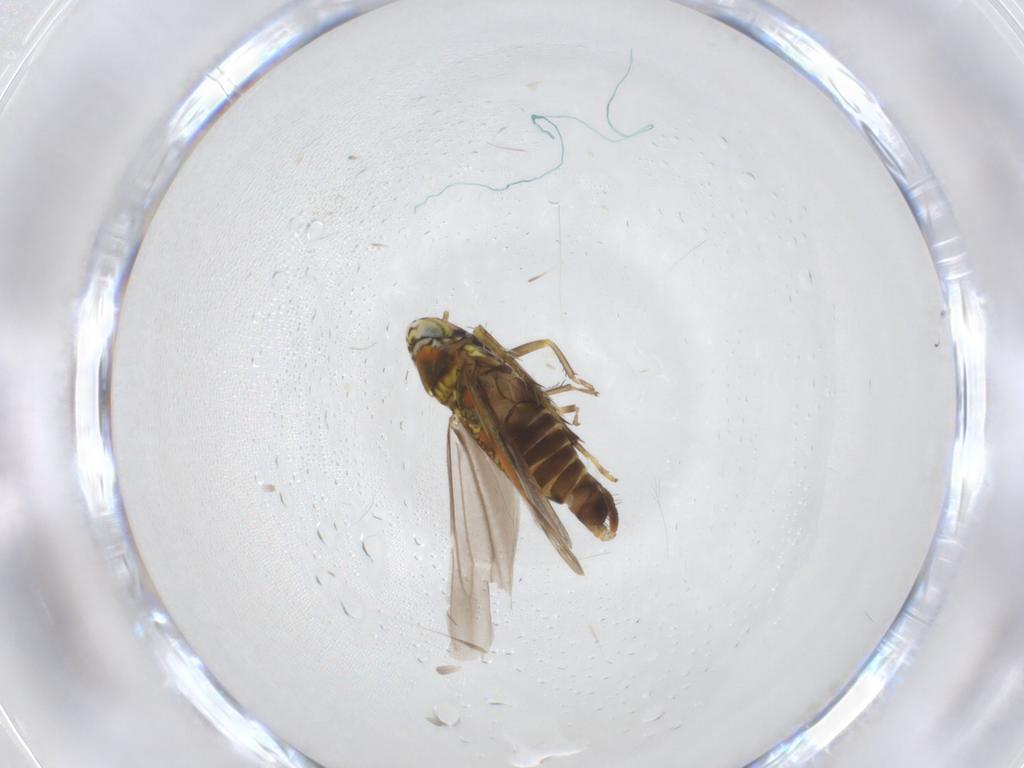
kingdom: Animalia
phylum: Arthropoda
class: Insecta
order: Hemiptera
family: Cicadellidae
